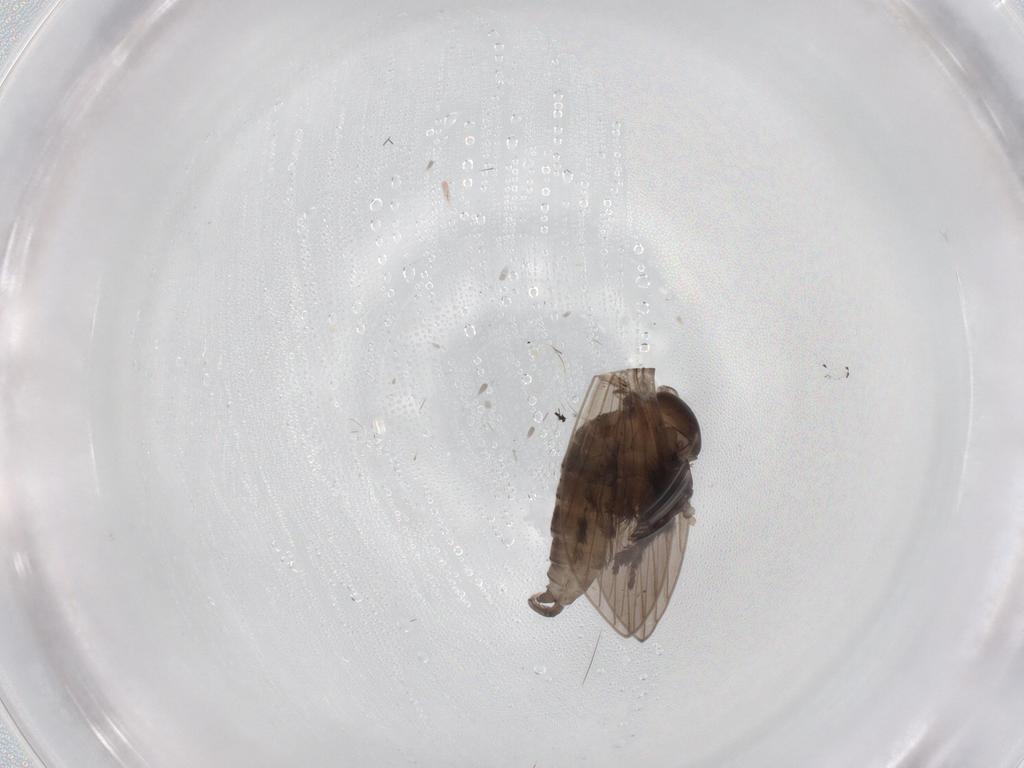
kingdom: Animalia
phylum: Arthropoda
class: Insecta
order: Diptera
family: Psychodidae
